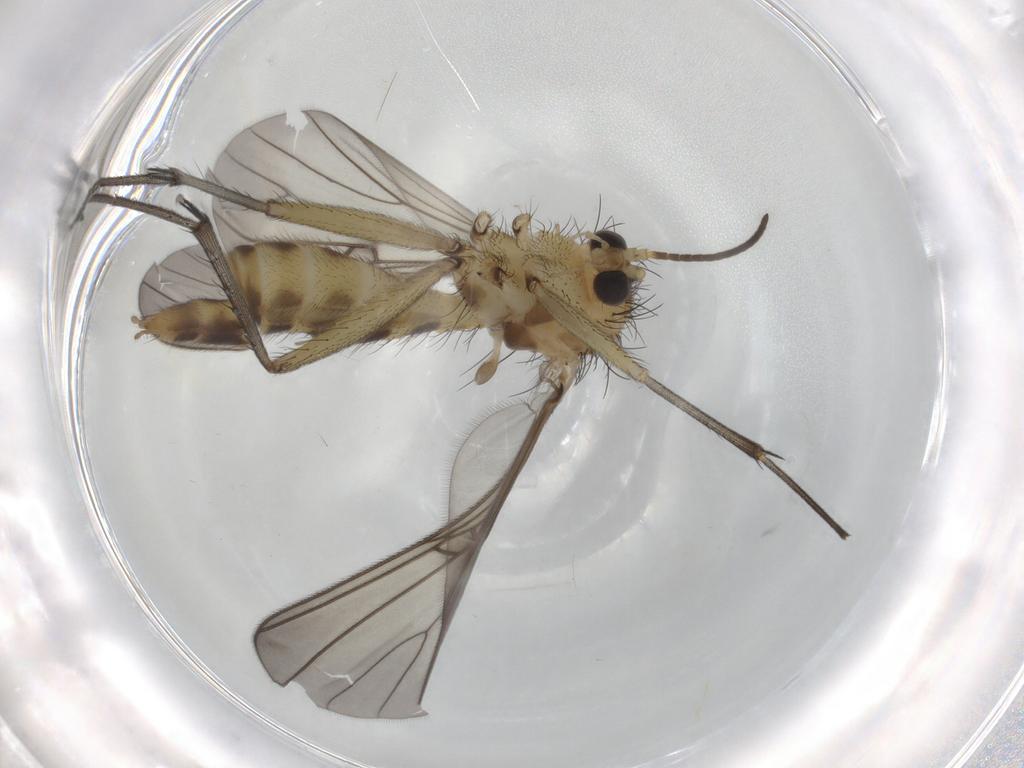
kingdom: Animalia
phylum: Arthropoda
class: Insecta
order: Diptera
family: Mycetophilidae
